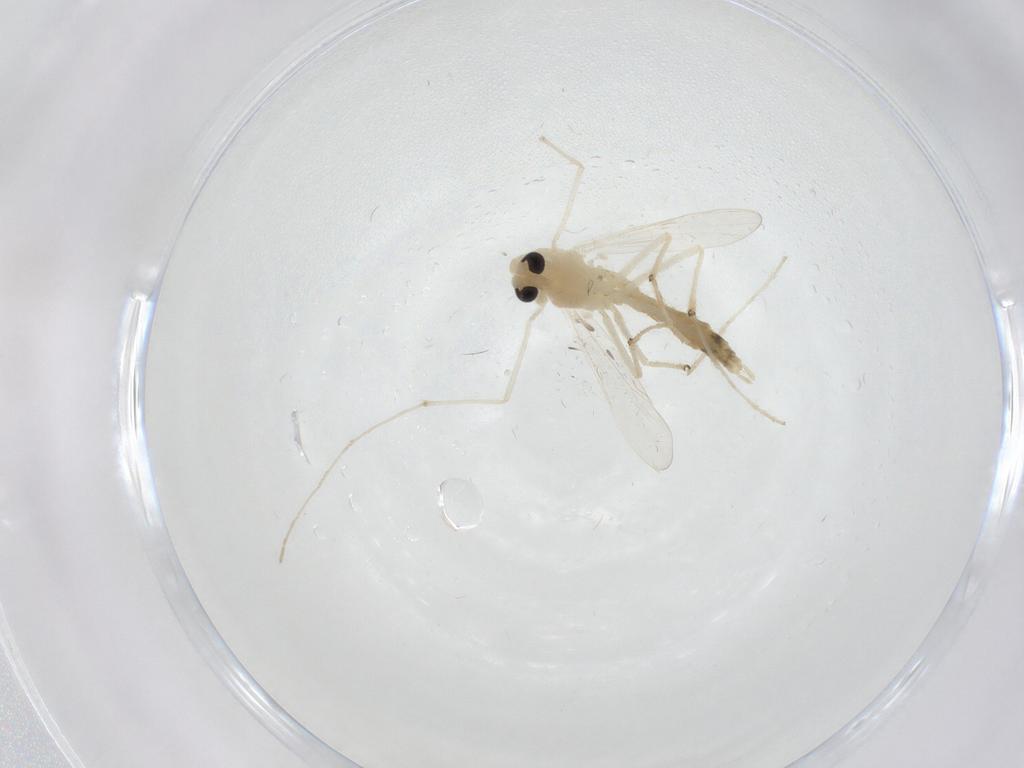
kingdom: Animalia
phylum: Arthropoda
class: Insecta
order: Diptera
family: Chironomidae
